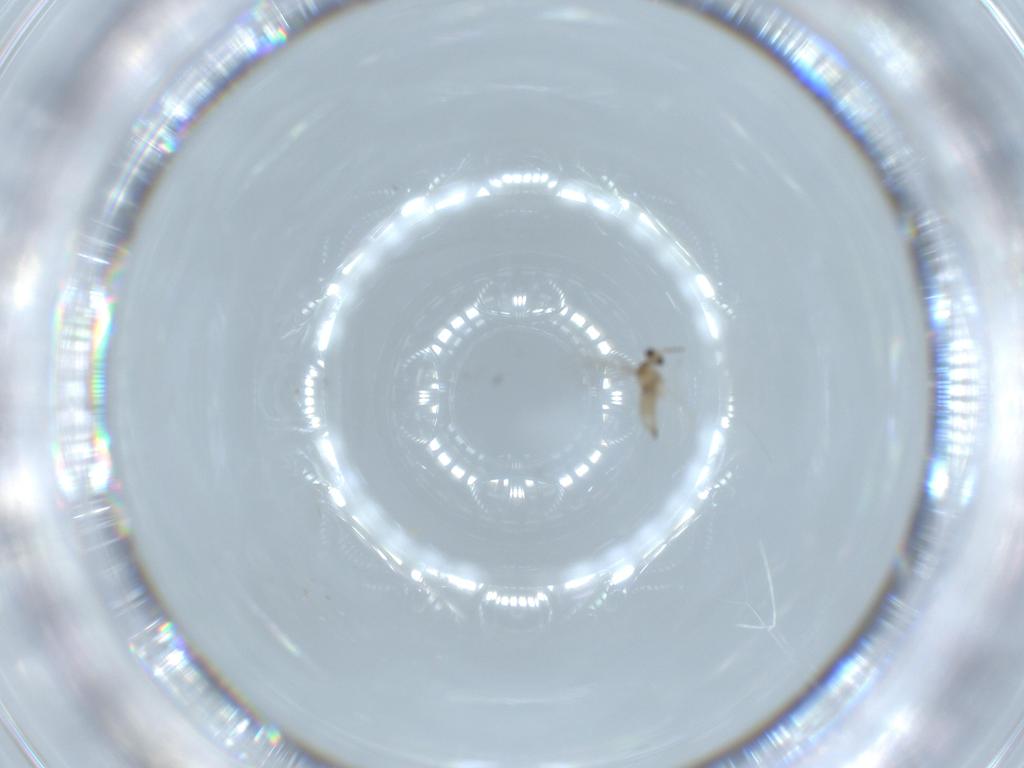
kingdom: Animalia
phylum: Arthropoda
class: Insecta
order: Diptera
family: Cecidomyiidae
